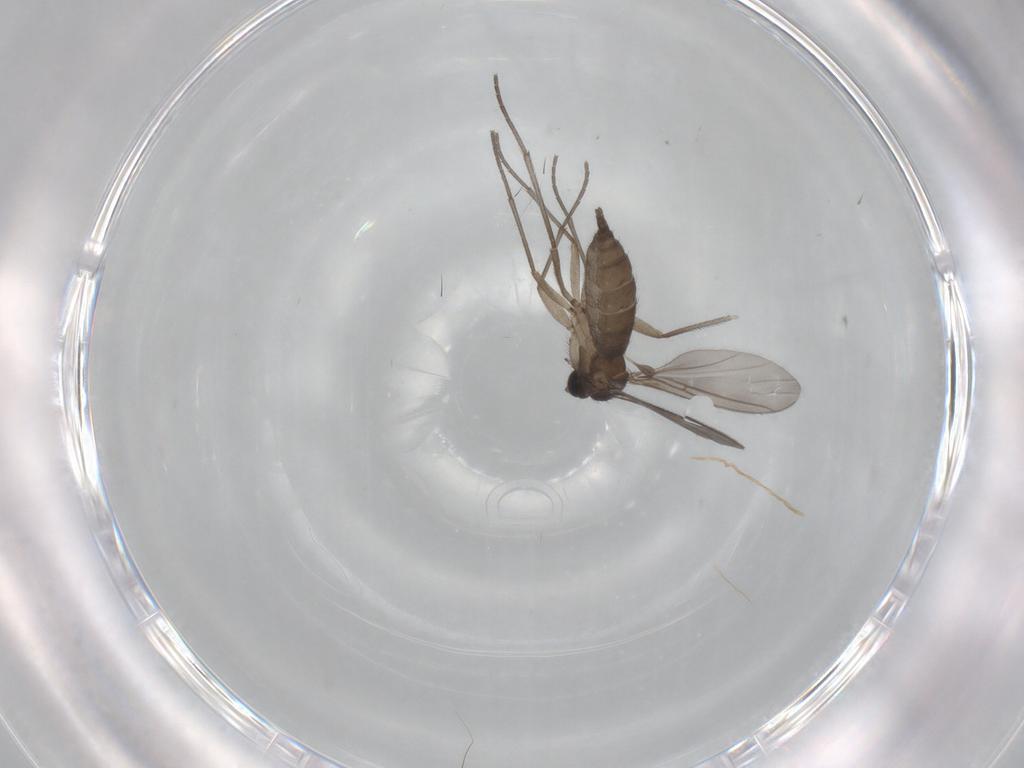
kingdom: Animalia
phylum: Arthropoda
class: Insecta
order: Diptera
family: Sciaridae
